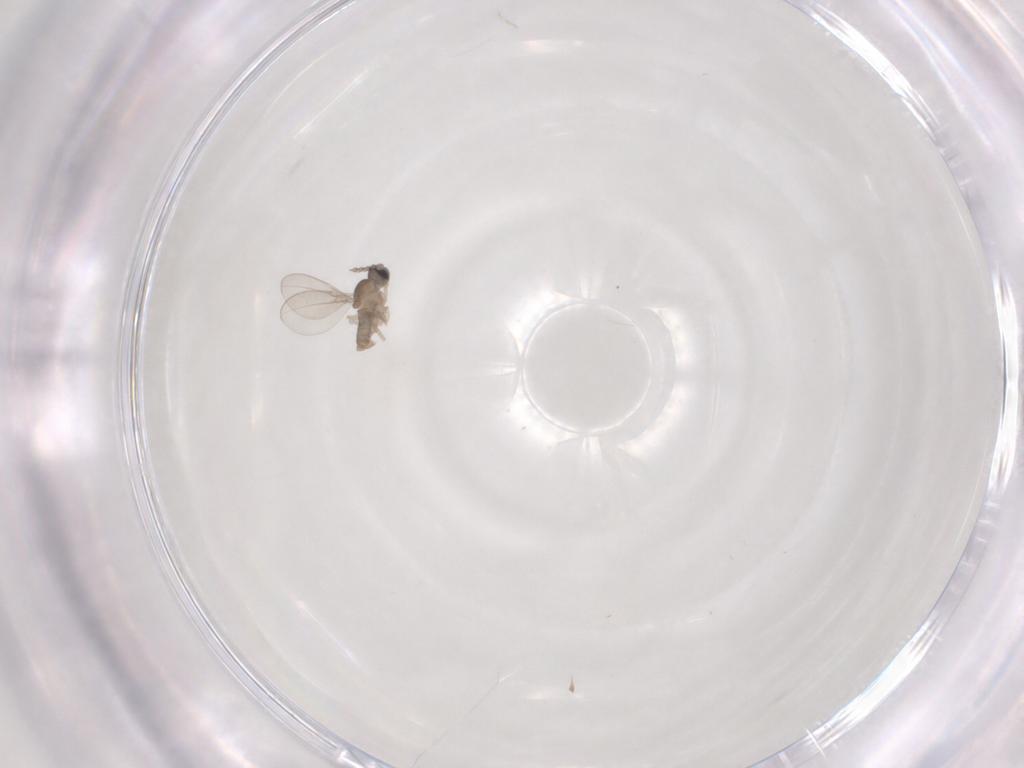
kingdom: Animalia
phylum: Arthropoda
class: Insecta
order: Diptera
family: Cecidomyiidae
